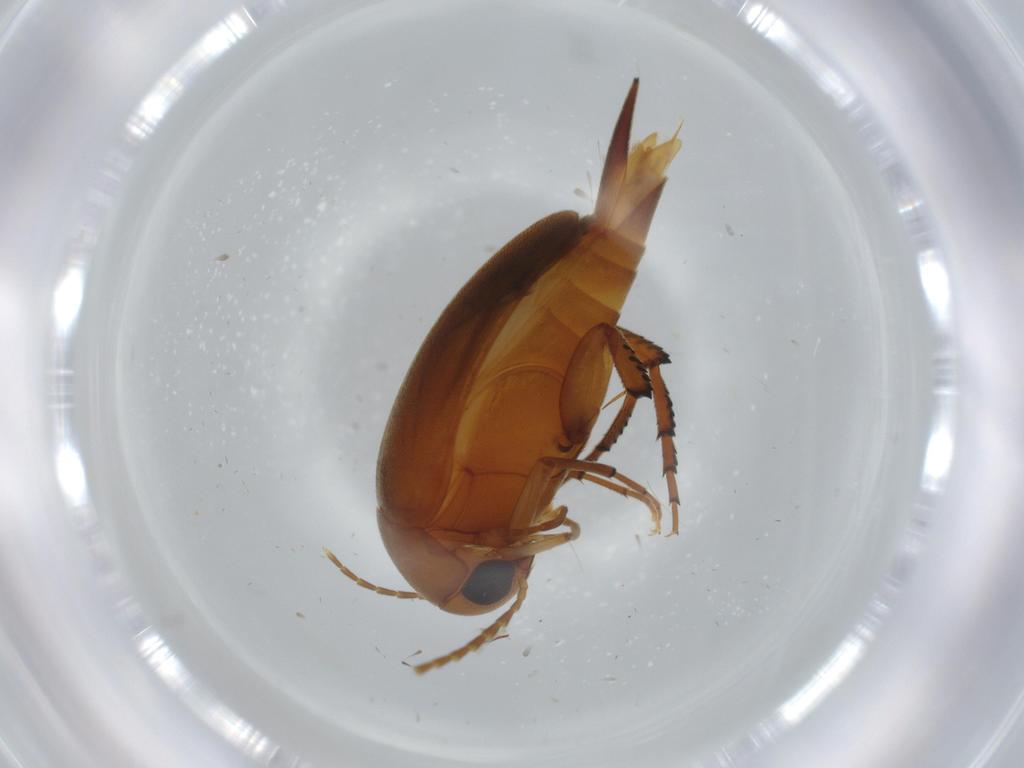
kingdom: Animalia
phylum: Arthropoda
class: Insecta
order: Coleoptera
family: Mordellidae
